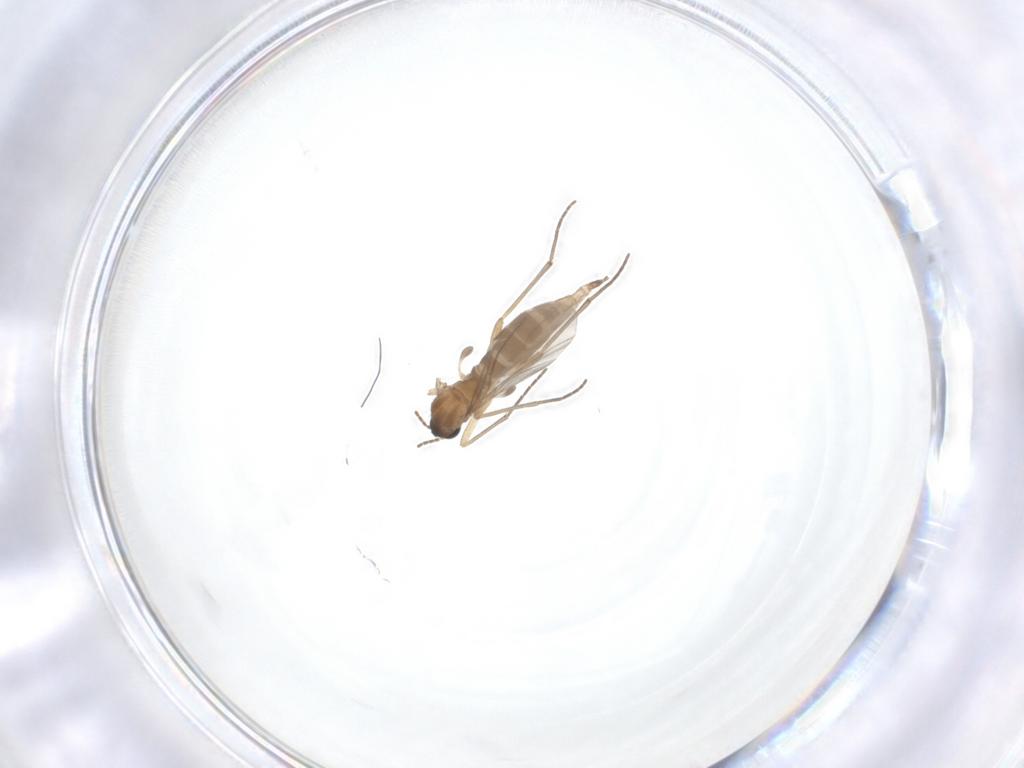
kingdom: Animalia
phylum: Arthropoda
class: Insecta
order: Diptera
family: Sciaridae
